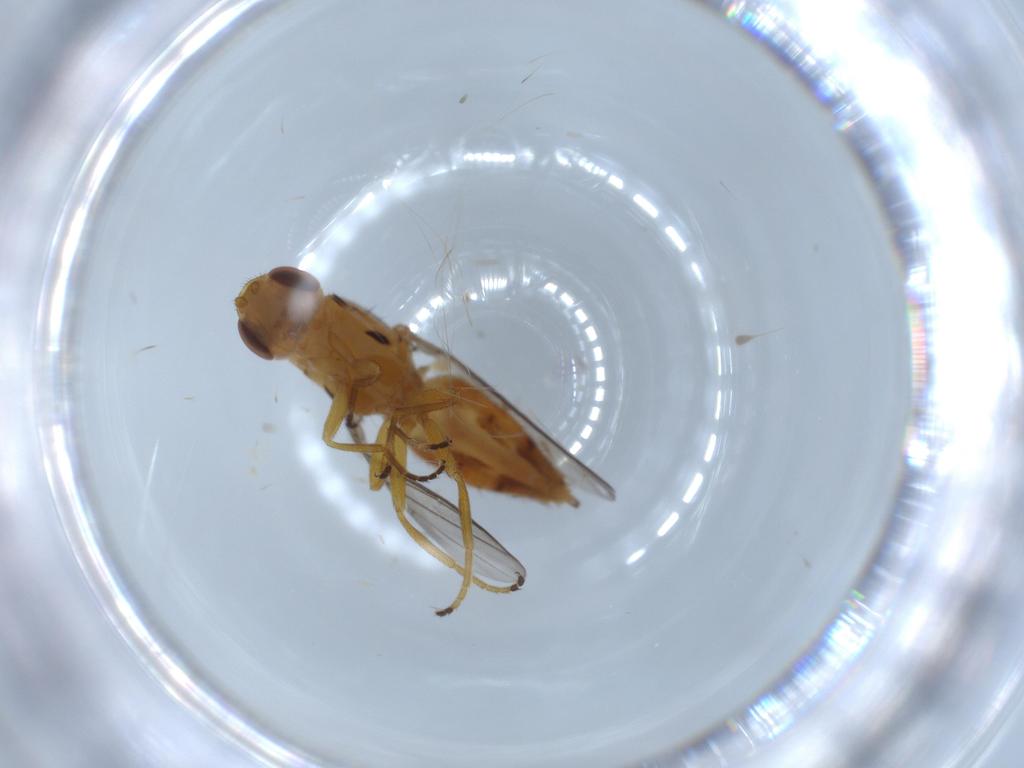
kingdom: Animalia
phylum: Arthropoda
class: Insecta
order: Diptera
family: Chloropidae
